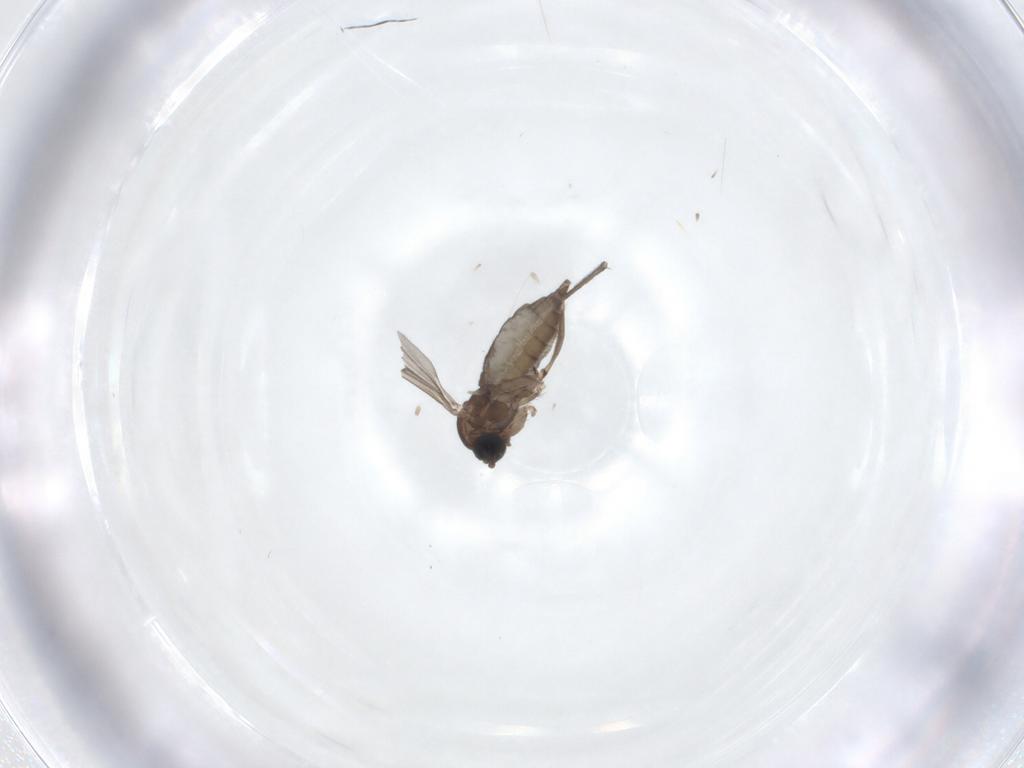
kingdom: Animalia
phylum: Arthropoda
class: Insecta
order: Diptera
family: Sciaridae
